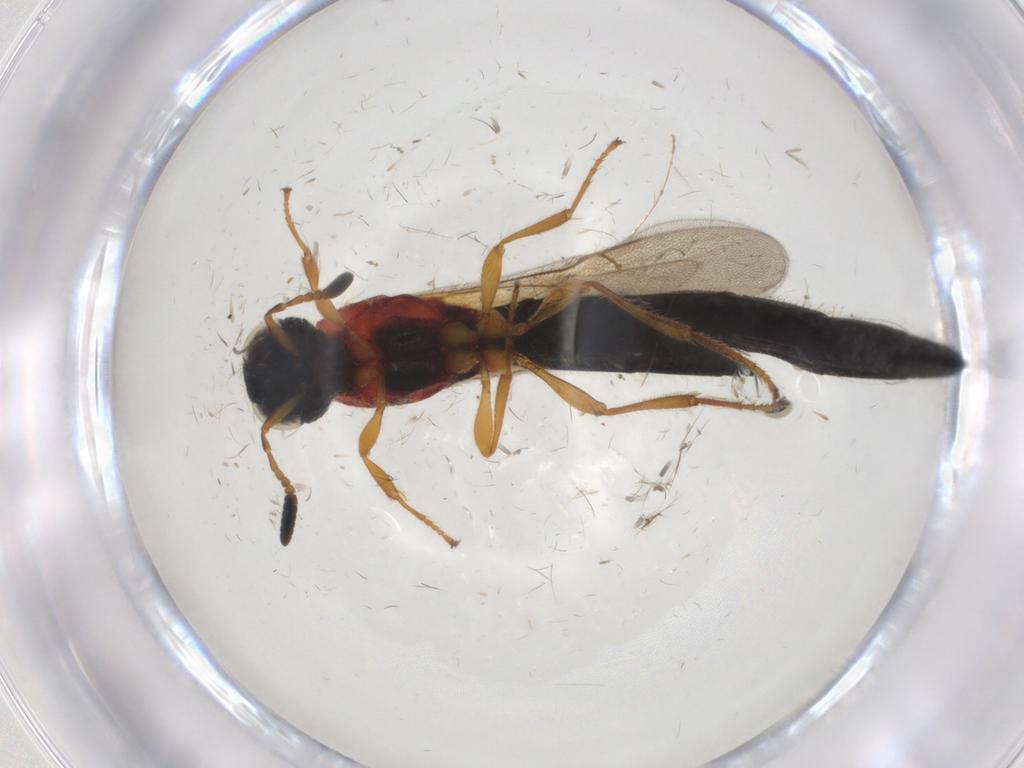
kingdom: Animalia
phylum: Arthropoda
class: Insecta
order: Hymenoptera
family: Scelionidae
